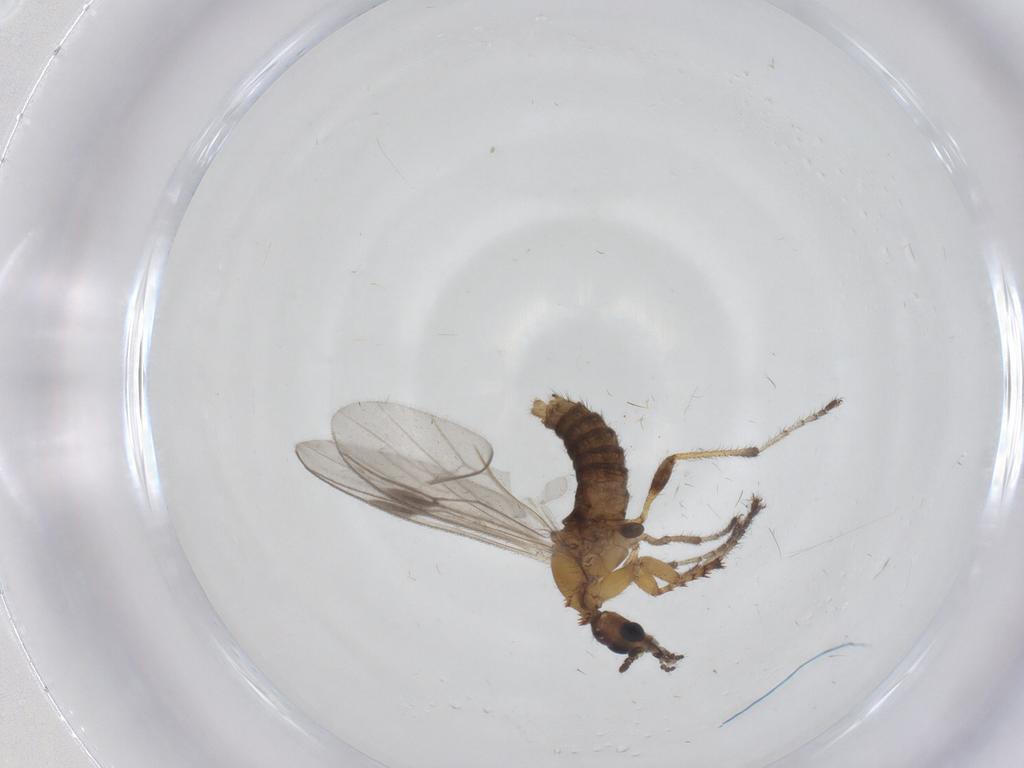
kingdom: Animalia
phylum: Arthropoda
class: Insecta
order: Diptera
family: Bibionidae
